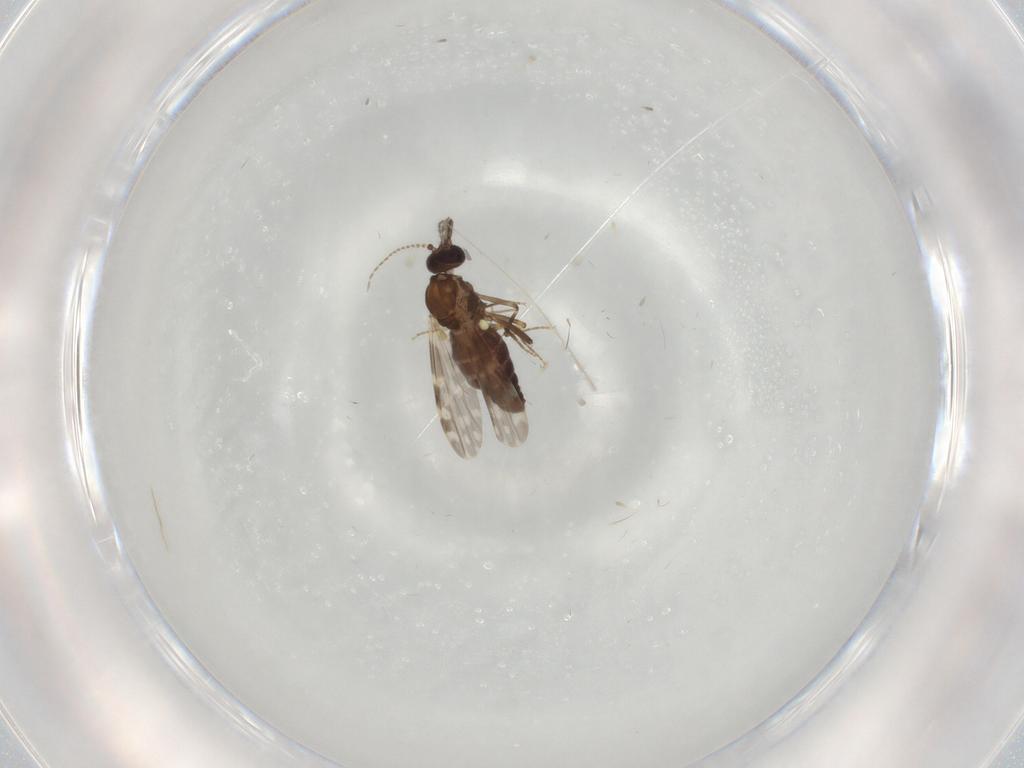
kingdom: Animalia
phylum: Arthropoda
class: Insecta
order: Diptera
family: Ceratopogonidae
